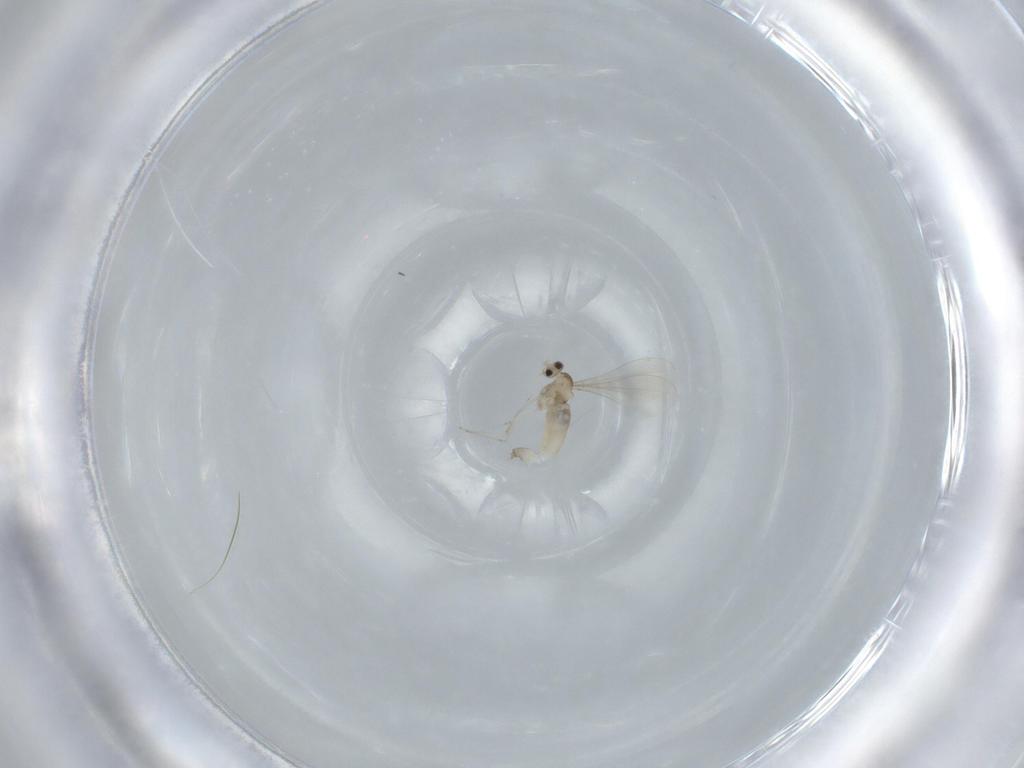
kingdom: Animalia
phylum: Arthropoda
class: Insecta
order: Diptera
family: Cecidomyiidae
